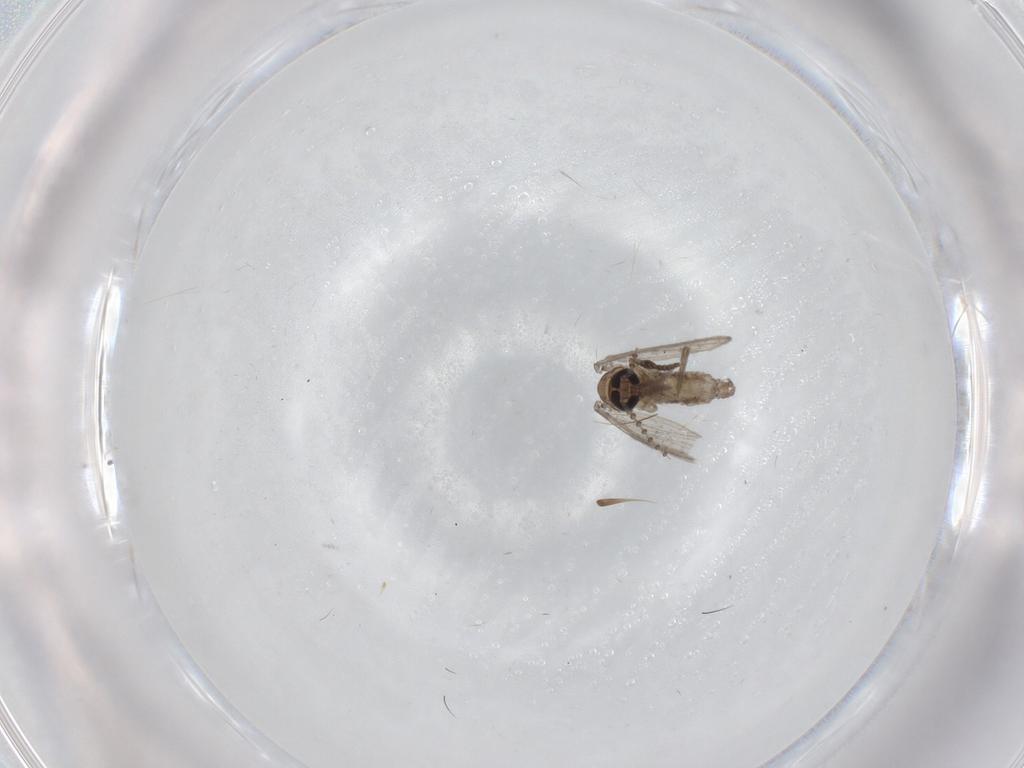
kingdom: Animalia
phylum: Arthropoda
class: Insecta
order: Diptera
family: Psychodidae
